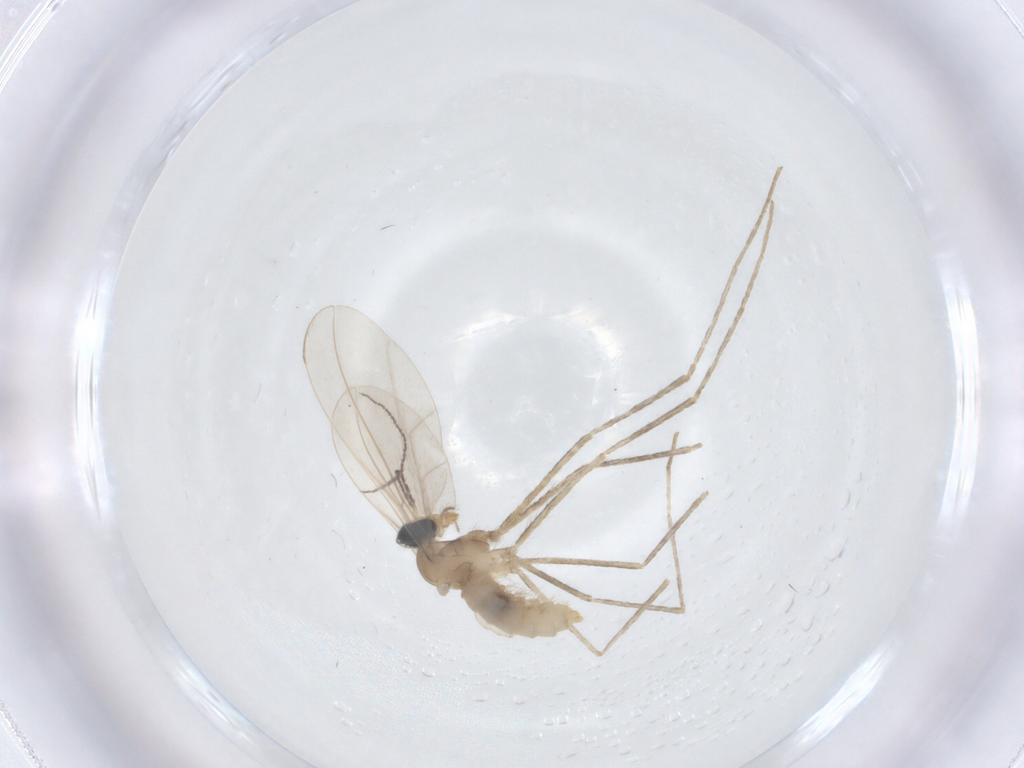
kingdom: Animalia
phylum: Arthropoda
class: Insecta
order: Diptera
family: Cecidomyiidae
